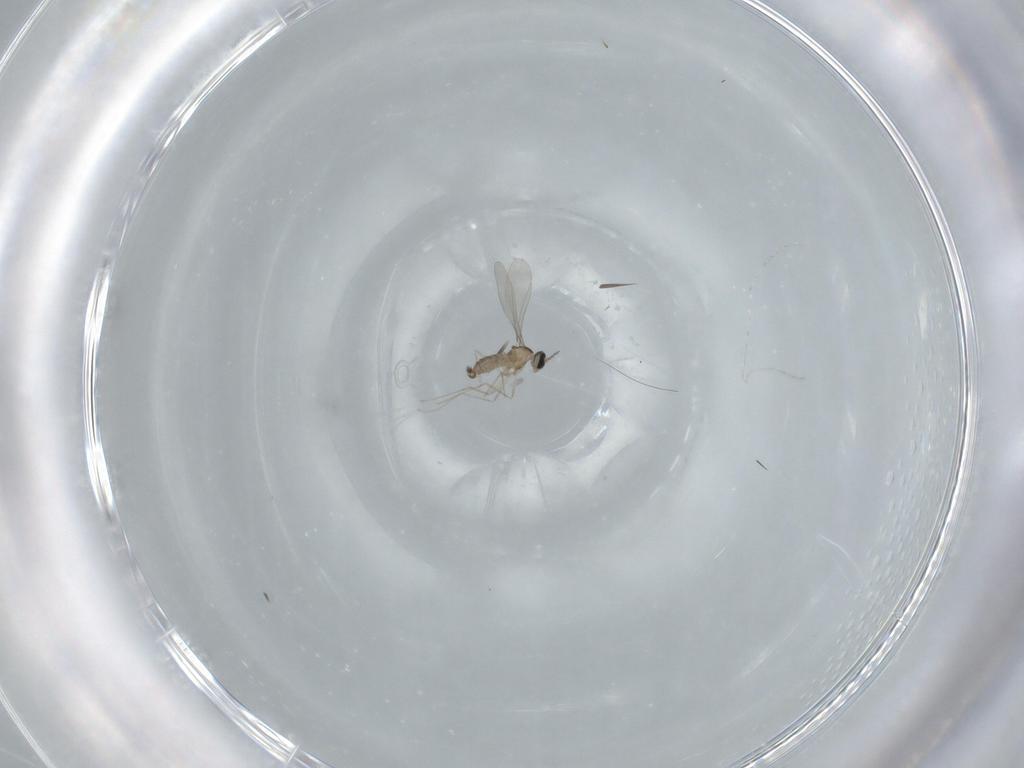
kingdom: Animalia
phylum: Arthropoda
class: Insecta
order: Diptera
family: Cecidomyiidae
